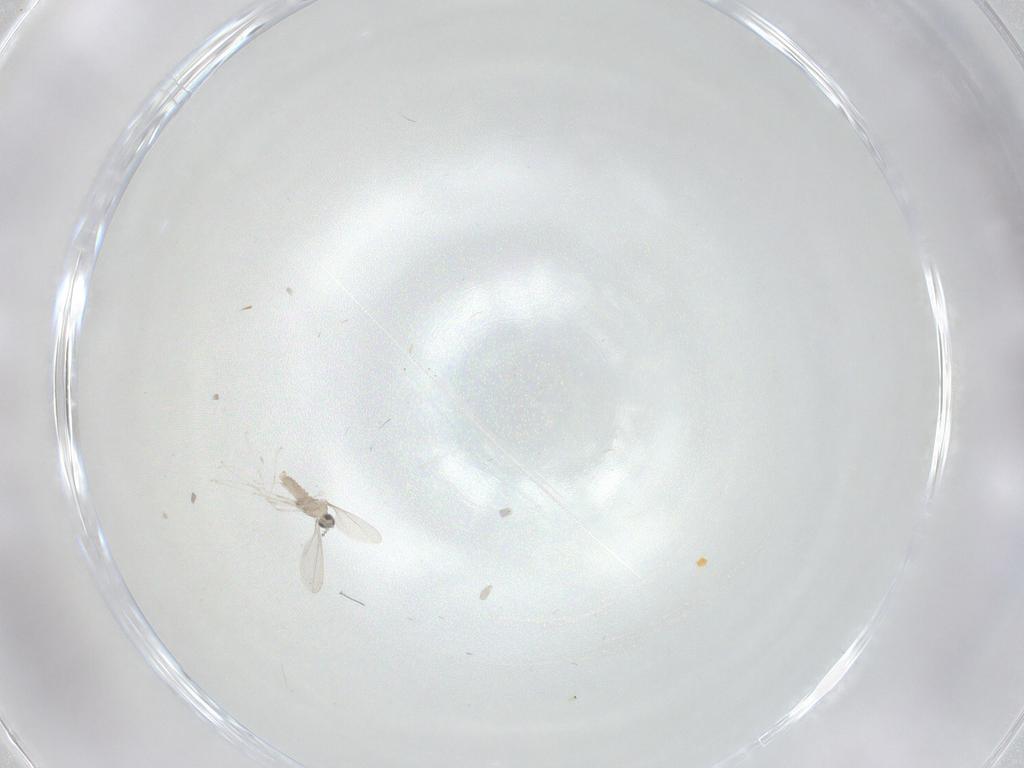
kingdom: Animalia
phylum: Arthropoda
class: Insecta
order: Diptera
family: Cecidomyiidae
